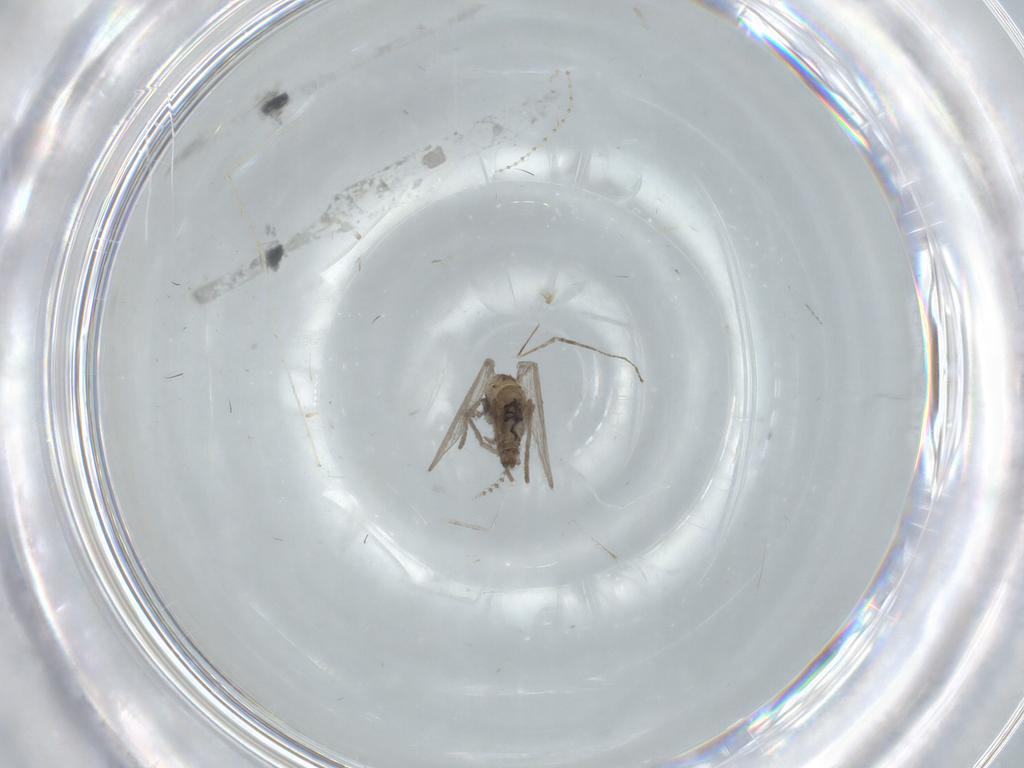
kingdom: Animalia
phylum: Arthropoda
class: Insecta
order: Diptera
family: Psychodidae
